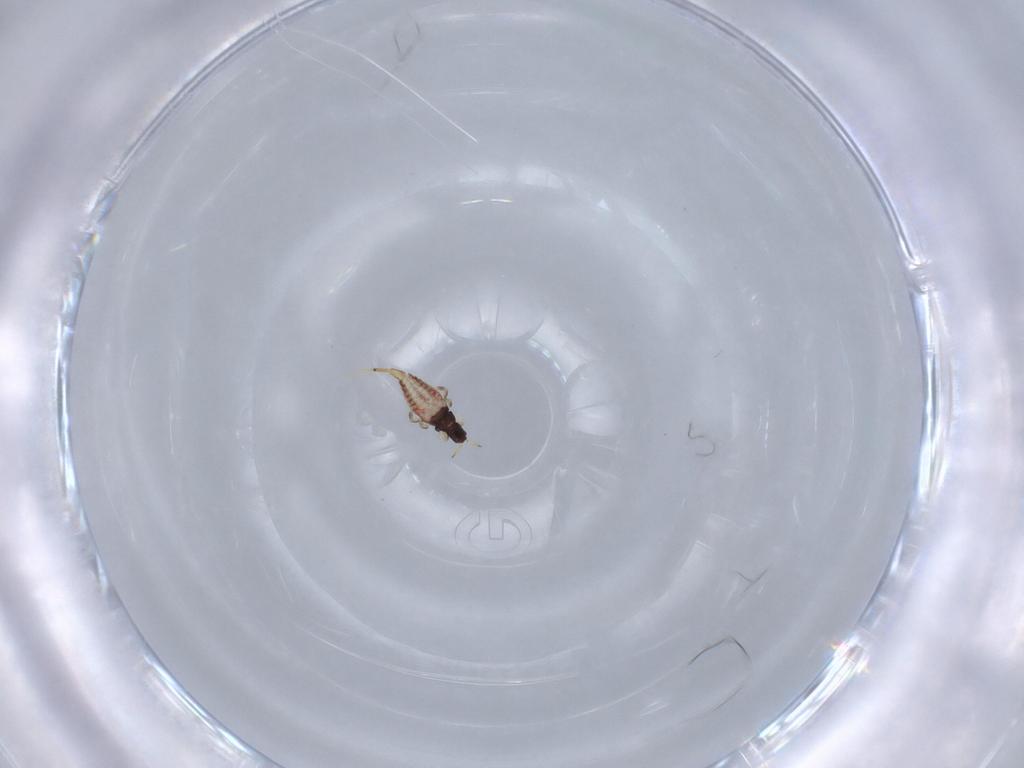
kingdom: Animalia
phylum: Arthropoda
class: Insecta
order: Thysanoptera
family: Phlaeothripidae
